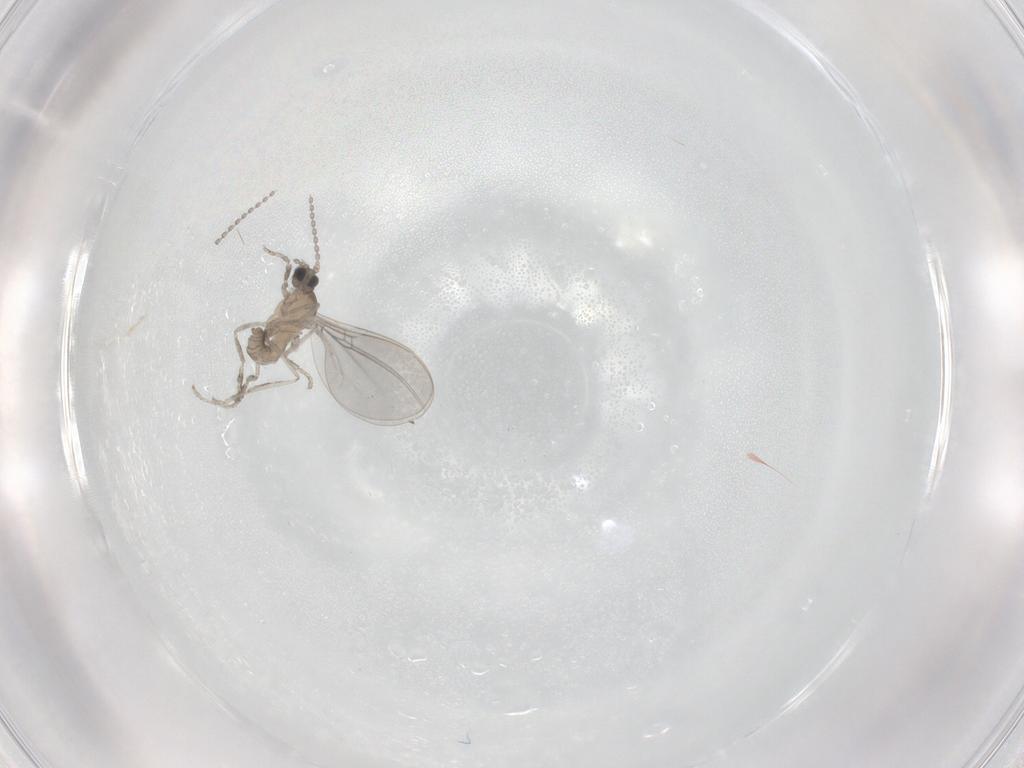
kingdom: Animalia
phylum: Arthropoda
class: Insecta
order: Diptera
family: Cecidomyiidae
